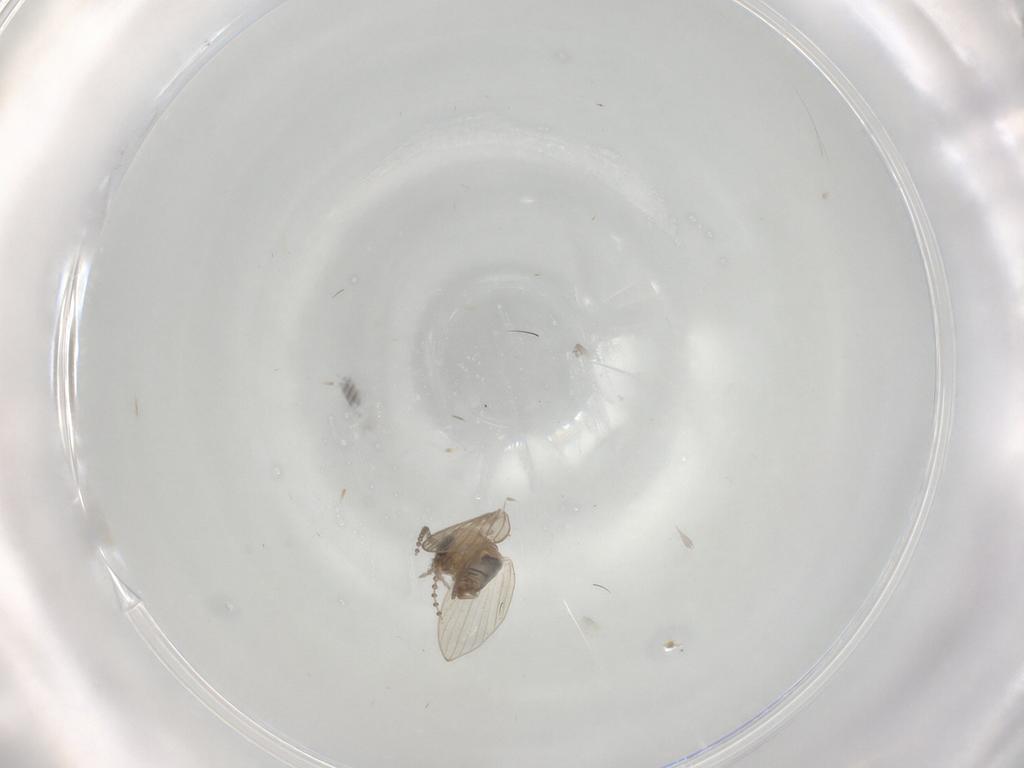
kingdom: Animalia
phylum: Arthropoda
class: Insecta
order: Diptera
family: Psychodidae
